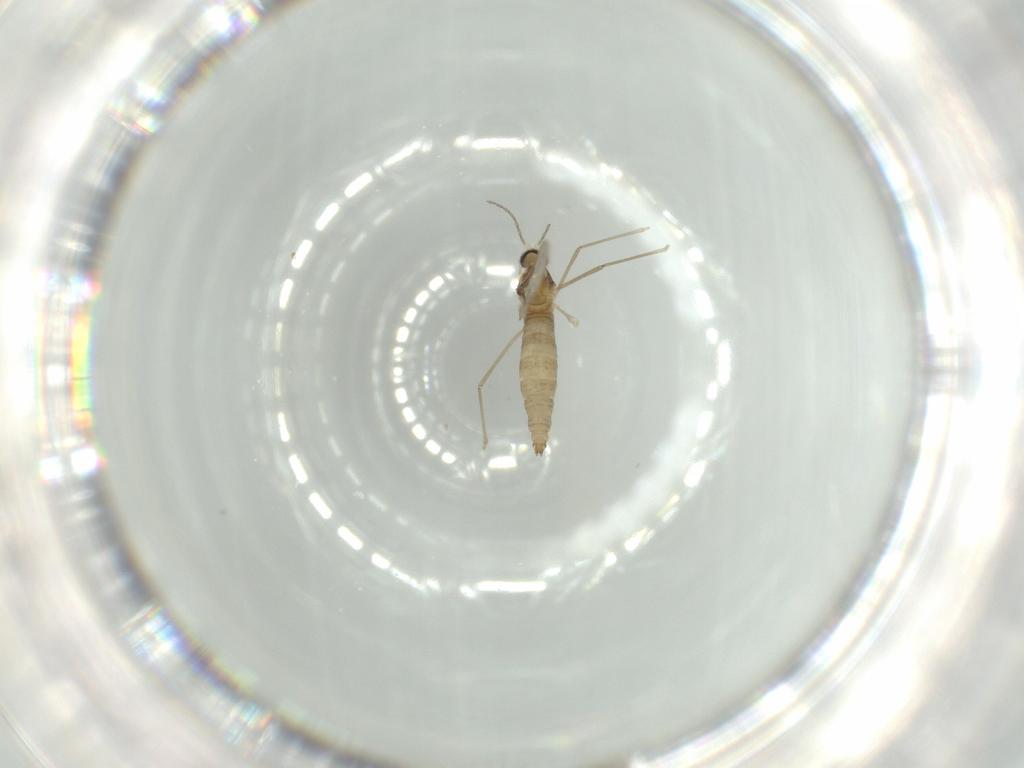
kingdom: Animalia
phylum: Arthropoda
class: Insecta
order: Diptera
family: Cecidomyiidae
